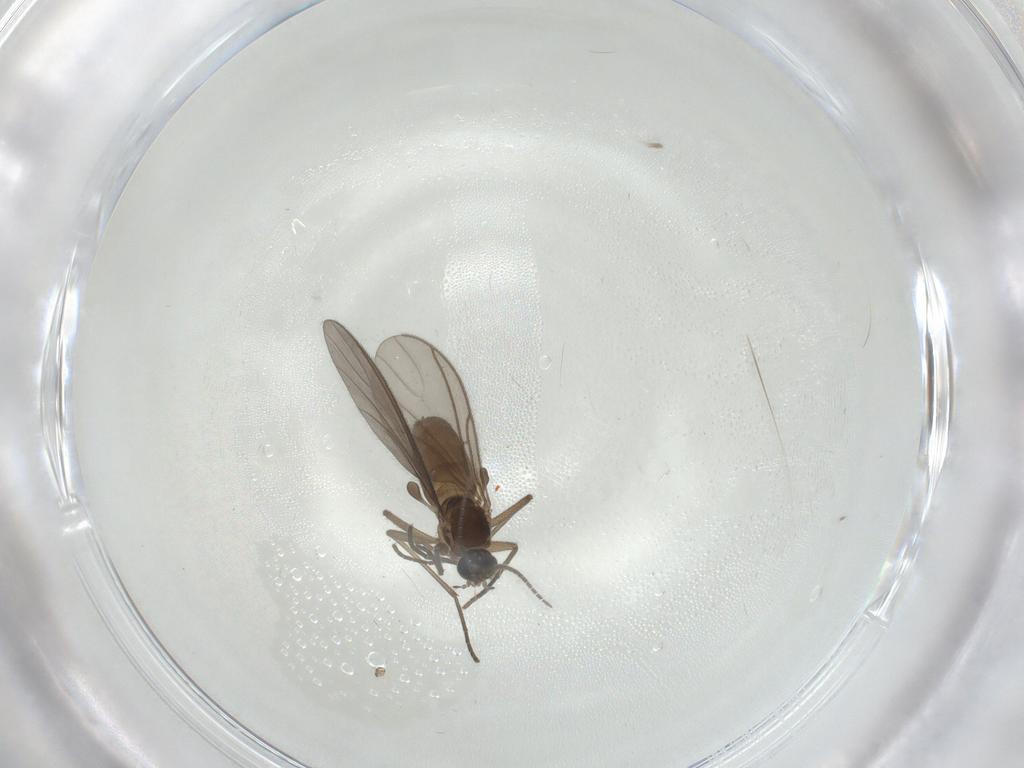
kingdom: Animalia
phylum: Arthropoda
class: Insecta
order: Diptera
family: Sciaridae
